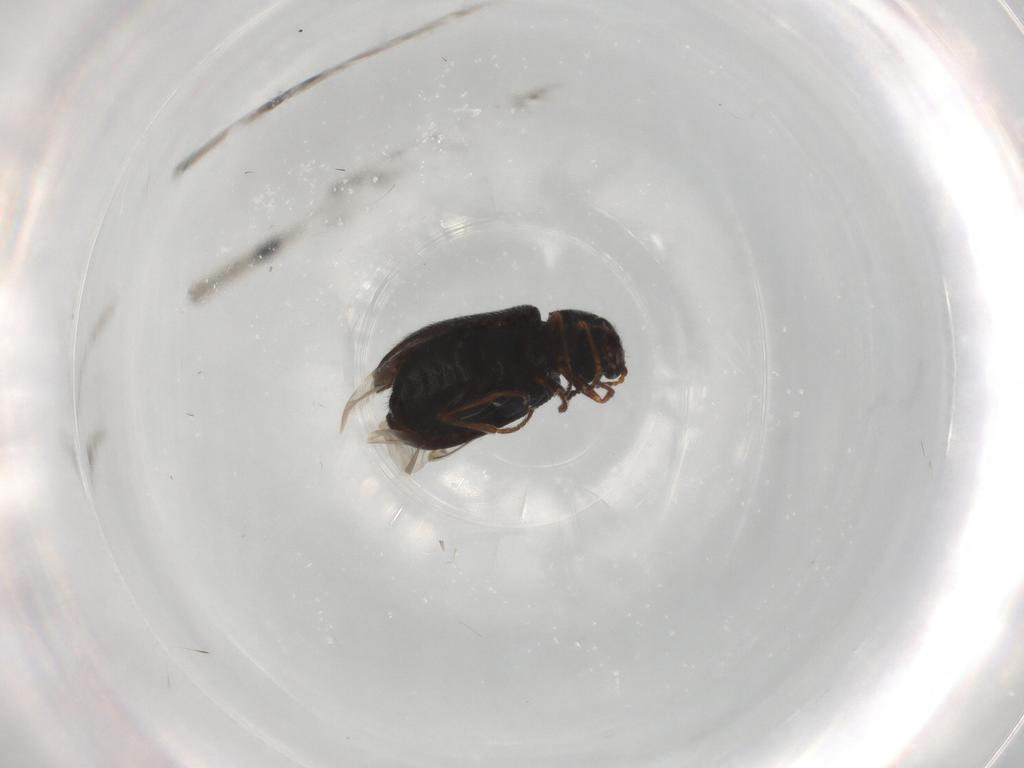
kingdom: Animalia
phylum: Arthropoda
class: Insecta
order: Coleoptera
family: Melyridae
